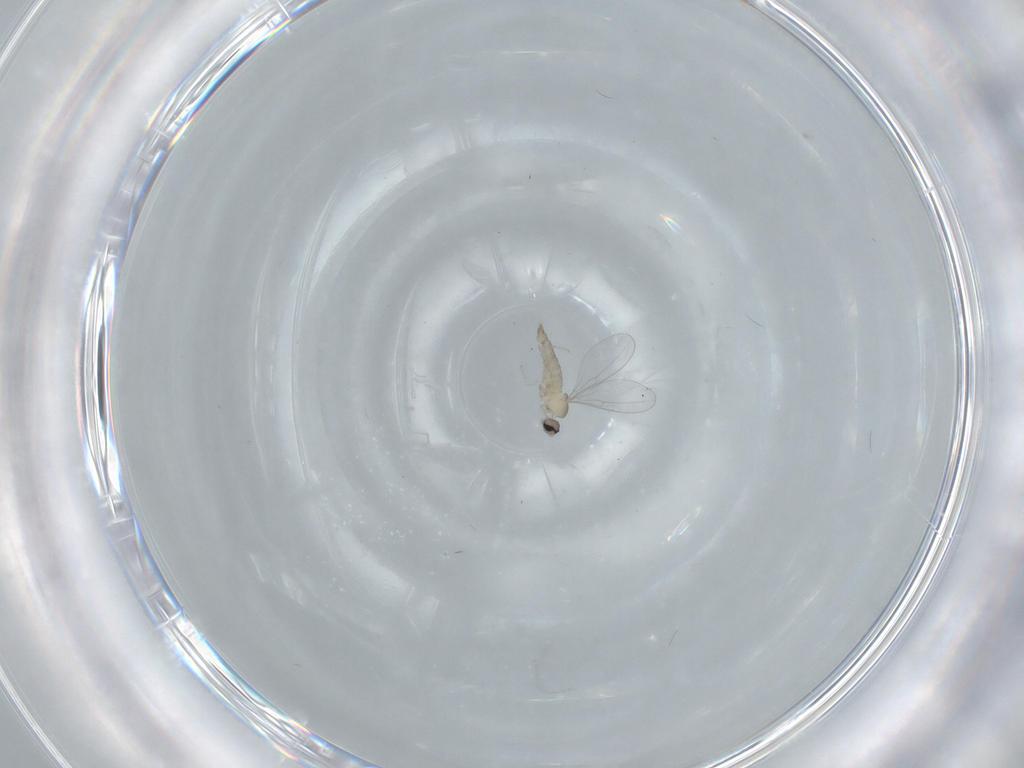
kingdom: Animalia
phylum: Arthropoda
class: Insecta
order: Diptera
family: Cecidomyiidae
